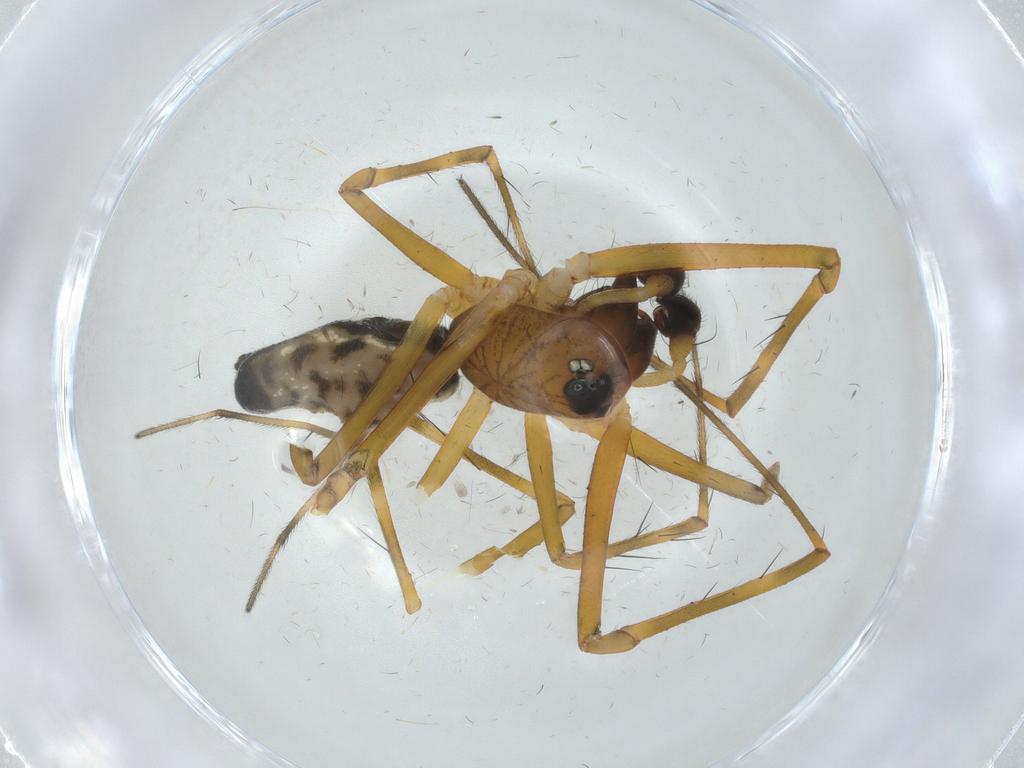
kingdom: Animalia
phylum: Arthropoda
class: Arachnida
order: Araneae
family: Linyphiidae
